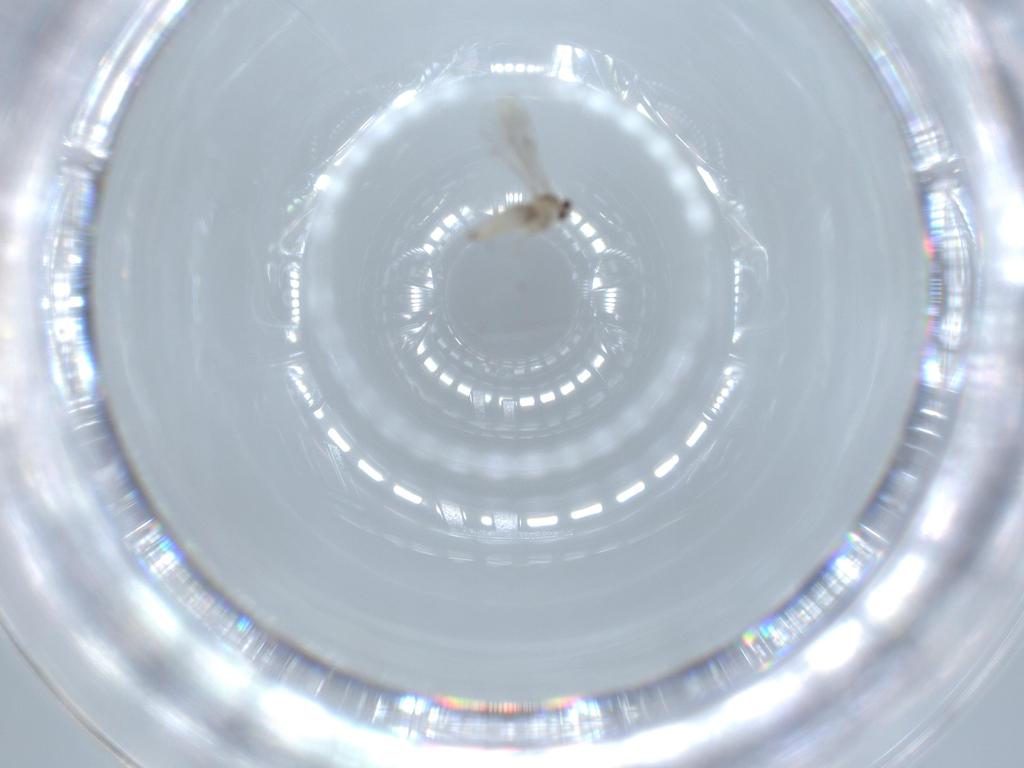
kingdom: Animalia
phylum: Arthropoda
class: Insecta
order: Diptera
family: Cecidomyiidae
